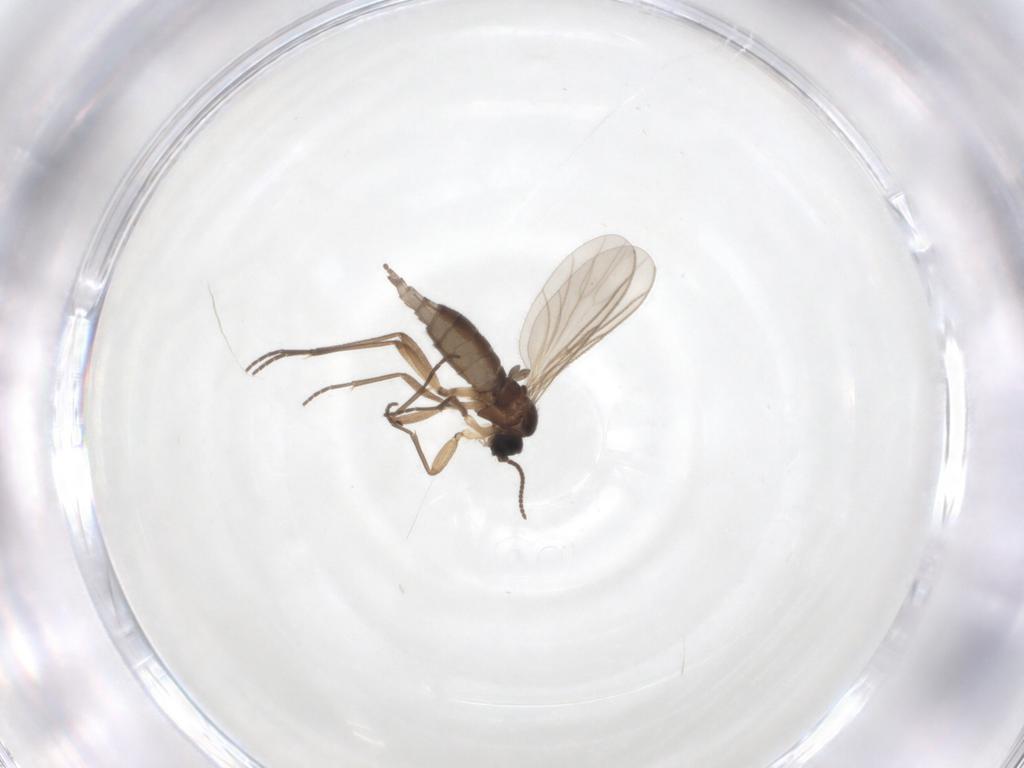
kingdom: Animalia
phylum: Arthropoda
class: Insecta
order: Diptera
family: Sciaridae
